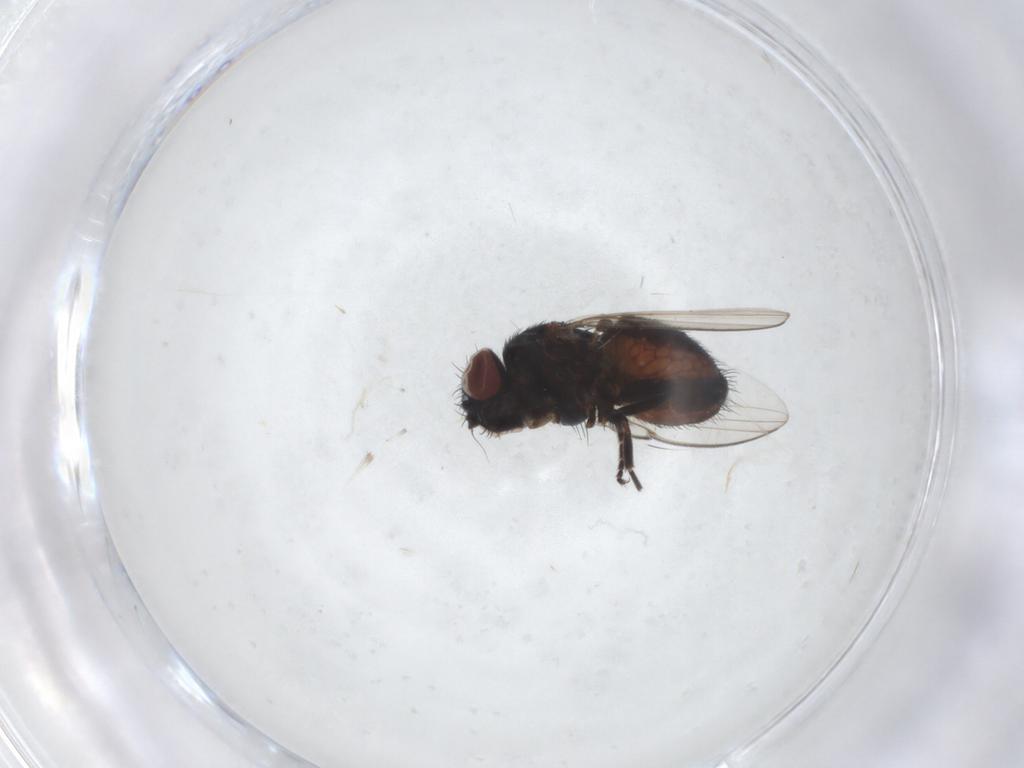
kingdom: Animalia
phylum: Arthropoda
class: Insecta
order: Diptera
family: Milichiidae
